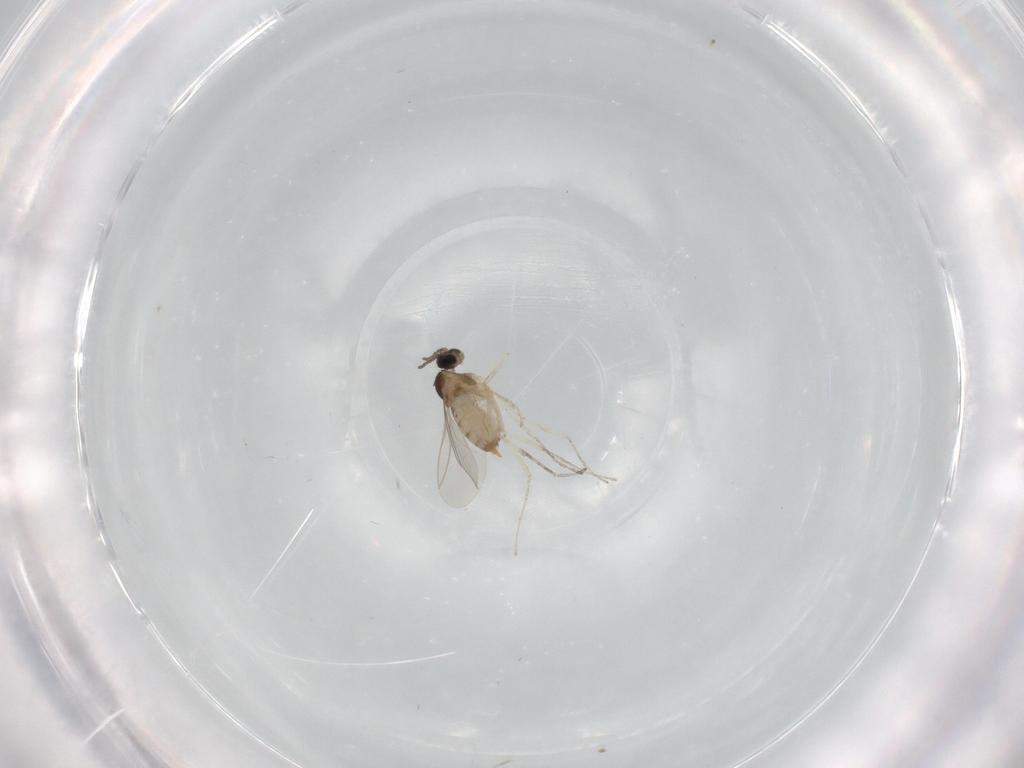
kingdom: Animalia
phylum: Arthropoda
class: Insecta
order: Diptera
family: Cecidomyiidae
